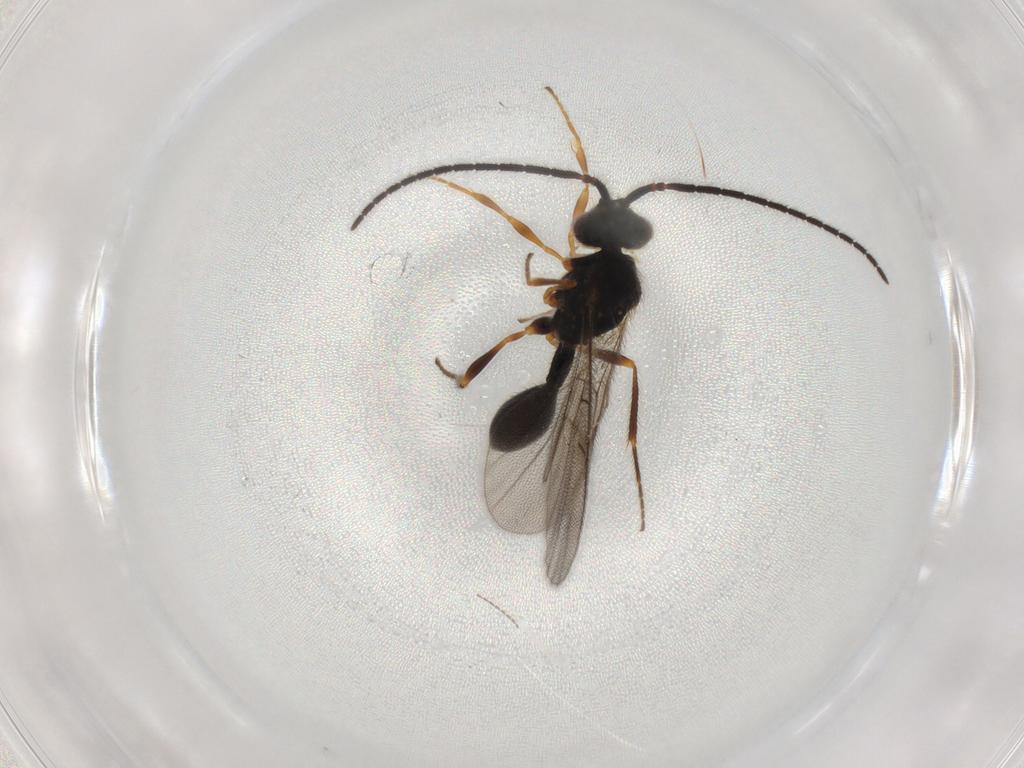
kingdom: Animalia
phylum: Arthropoda
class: Insecta
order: Hymenoptera
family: Diapriidae
